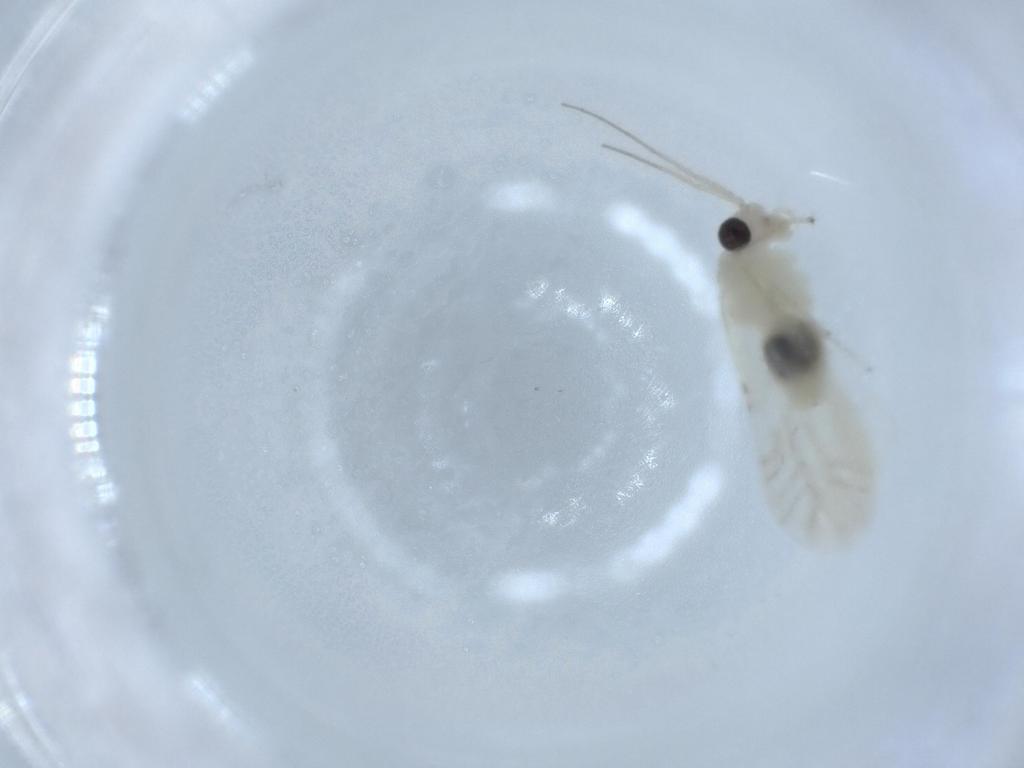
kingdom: Animalia
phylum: Arthropoda
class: Insecta
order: Psocodea
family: Caeciliusidae
